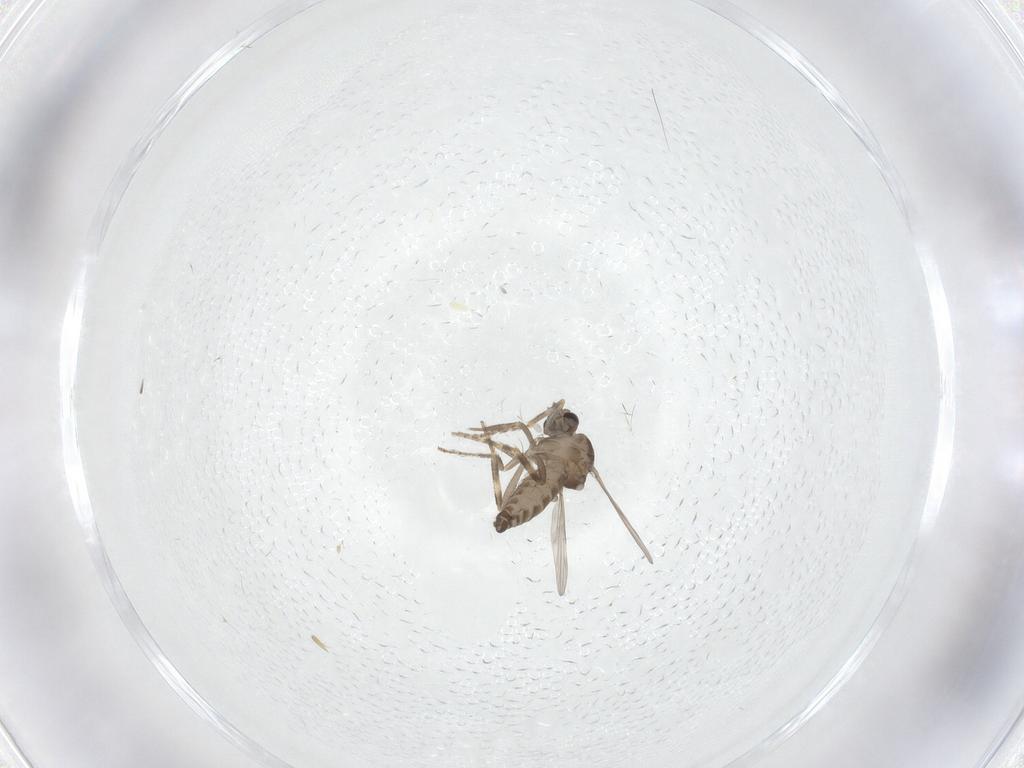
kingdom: Animalia
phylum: Arthropoda
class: Insecta
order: Diptera
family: Ceratopogonidae
